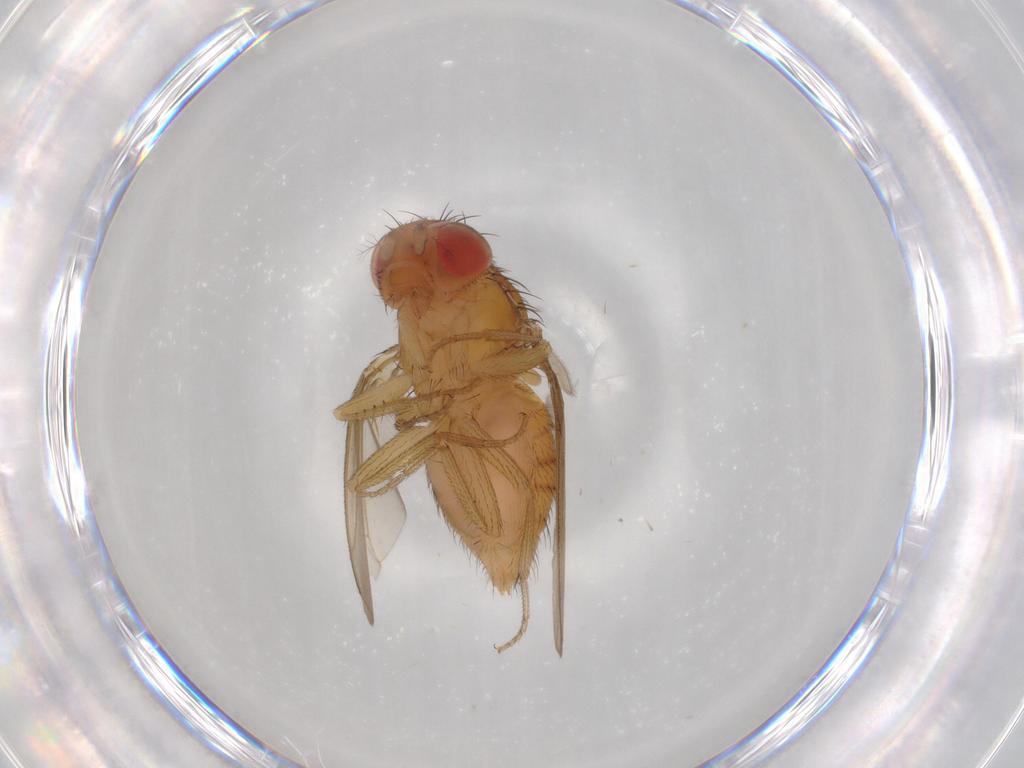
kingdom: Animalia
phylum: Arthropoda
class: Insecta
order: Diptera
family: Drosophilidae
